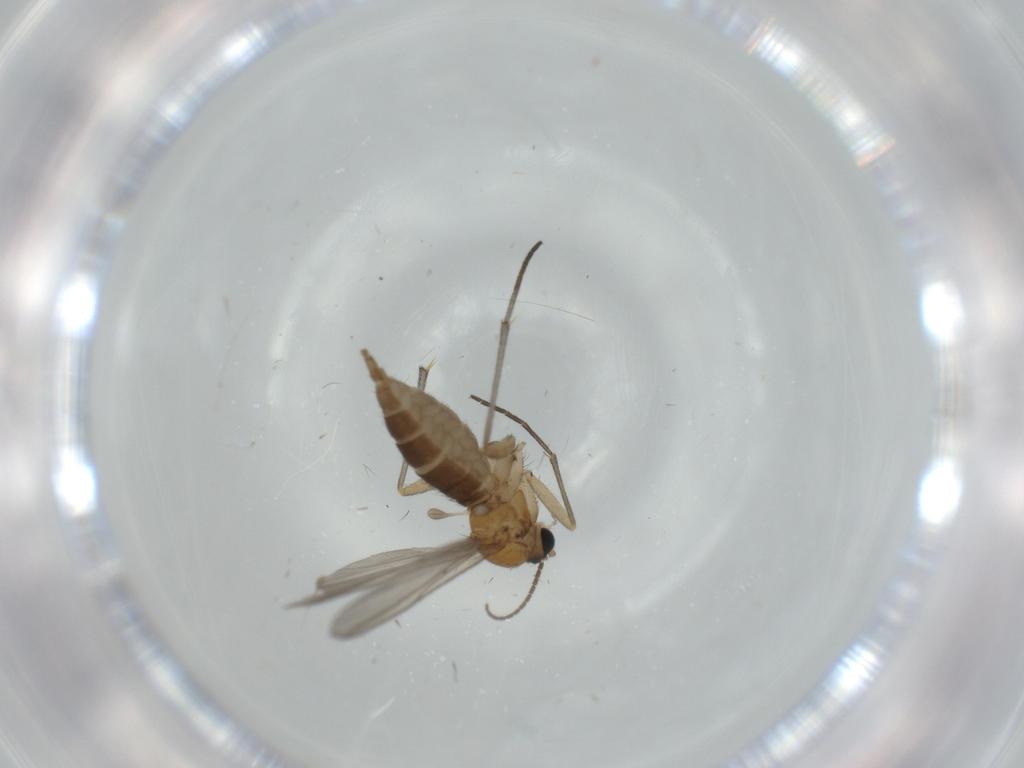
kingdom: Animalia
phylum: Arthropoda
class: Insecta
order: Diptera
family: Sciaridae
